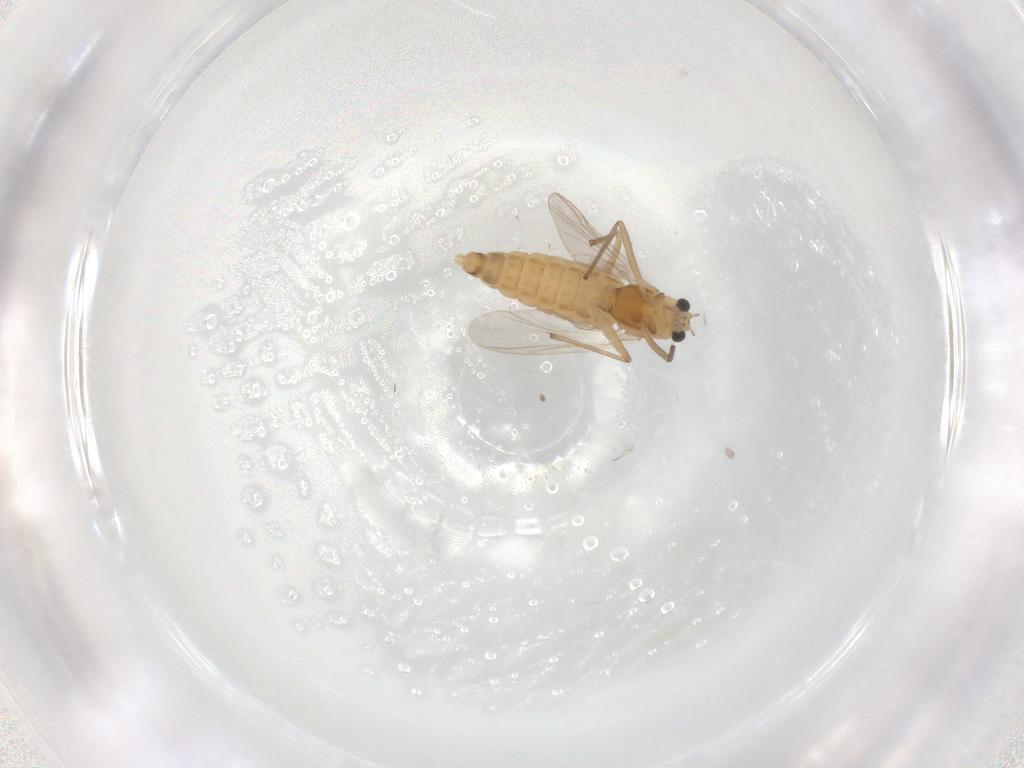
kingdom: Animalia
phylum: Arthropoda
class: Insecta
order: Diptera
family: Chironomidae
